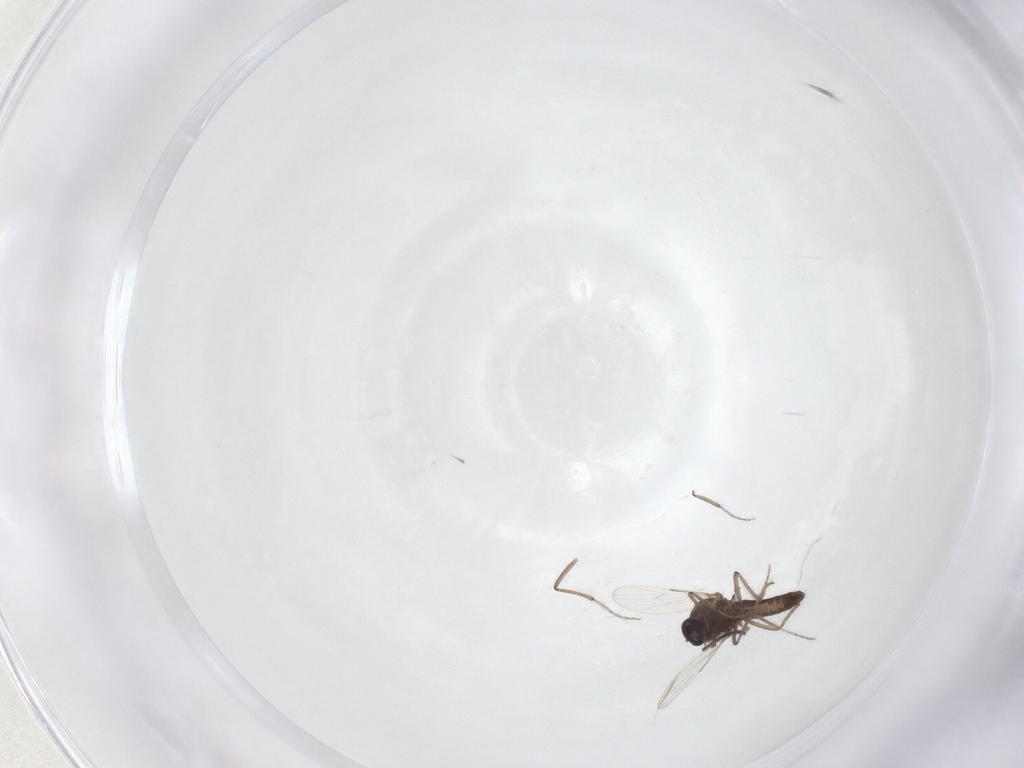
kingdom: Animalia
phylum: Arthropoda
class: Insecta
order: Diptera
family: Ceratopogonidae
